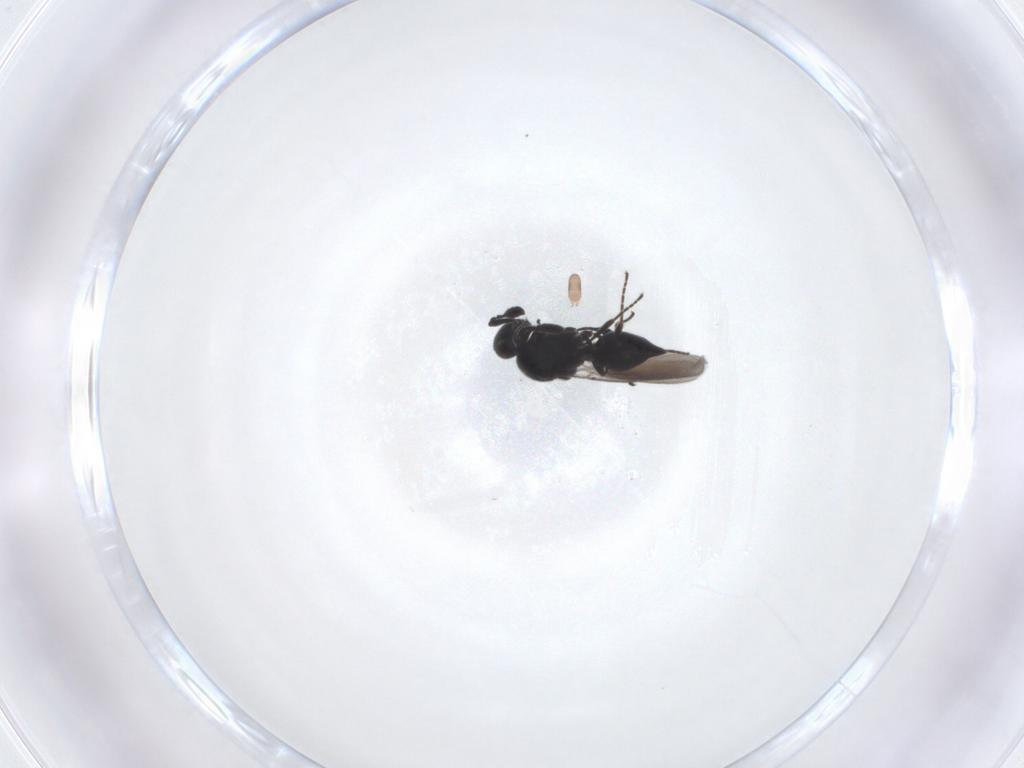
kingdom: Animalia
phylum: Arthropoda
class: Insecta
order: Hymenoptera
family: Platygastridae
